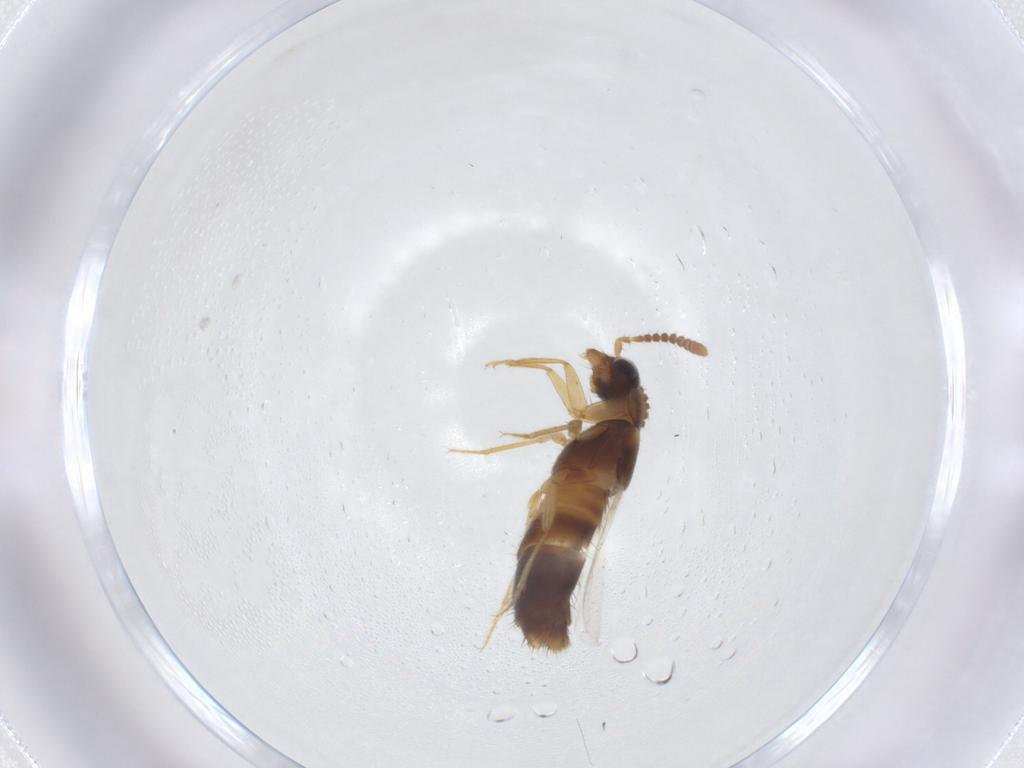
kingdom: Animalia
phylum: Arthropoda
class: Insecta
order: Coleoptera
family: Staphylinidae
